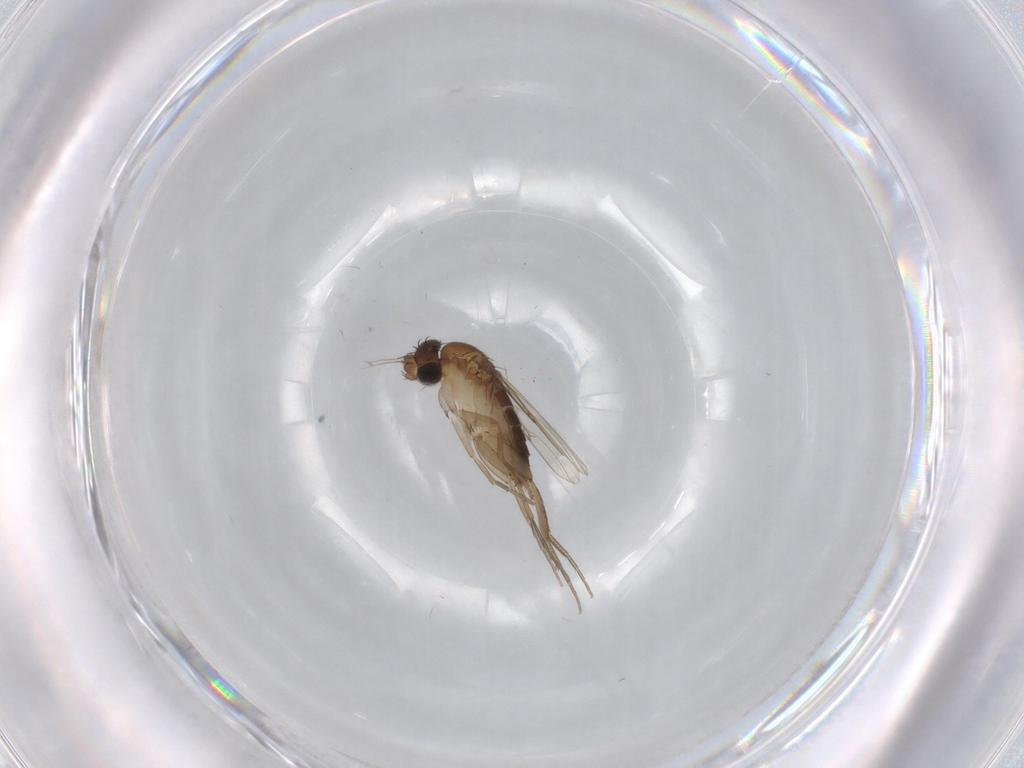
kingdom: Animalia
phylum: Arthropoda
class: Insecta
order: Diptera
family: Phoridae
